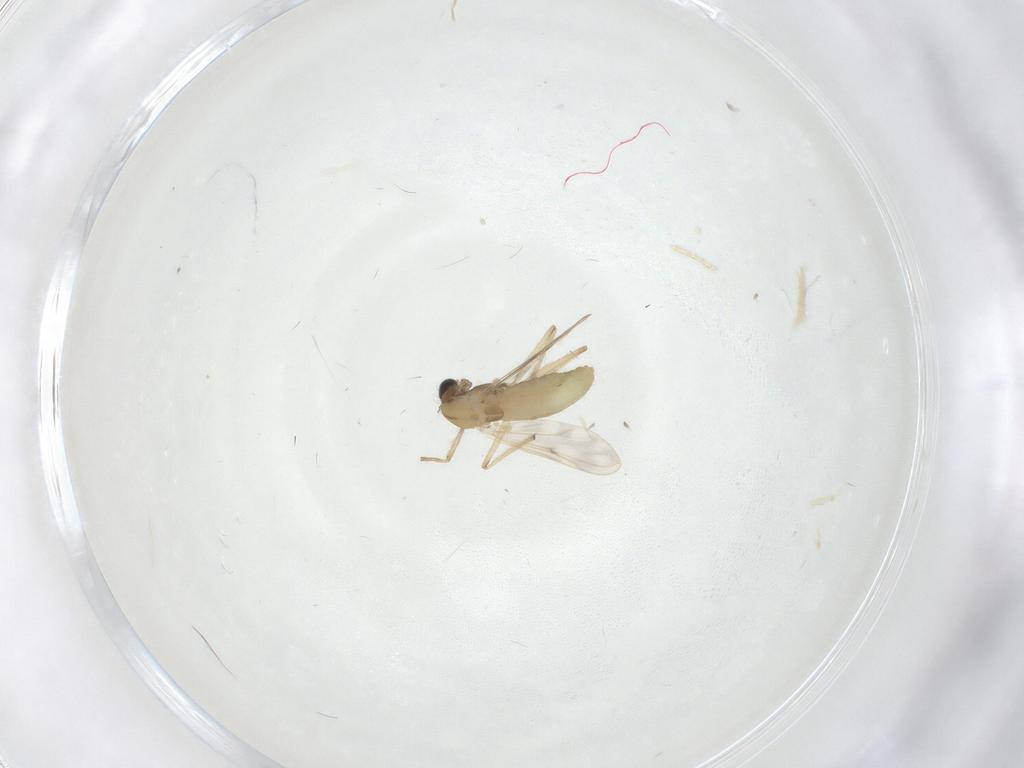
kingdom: Animalia
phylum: Arthropoda
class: Insecta
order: Diptera
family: Chironomidae
